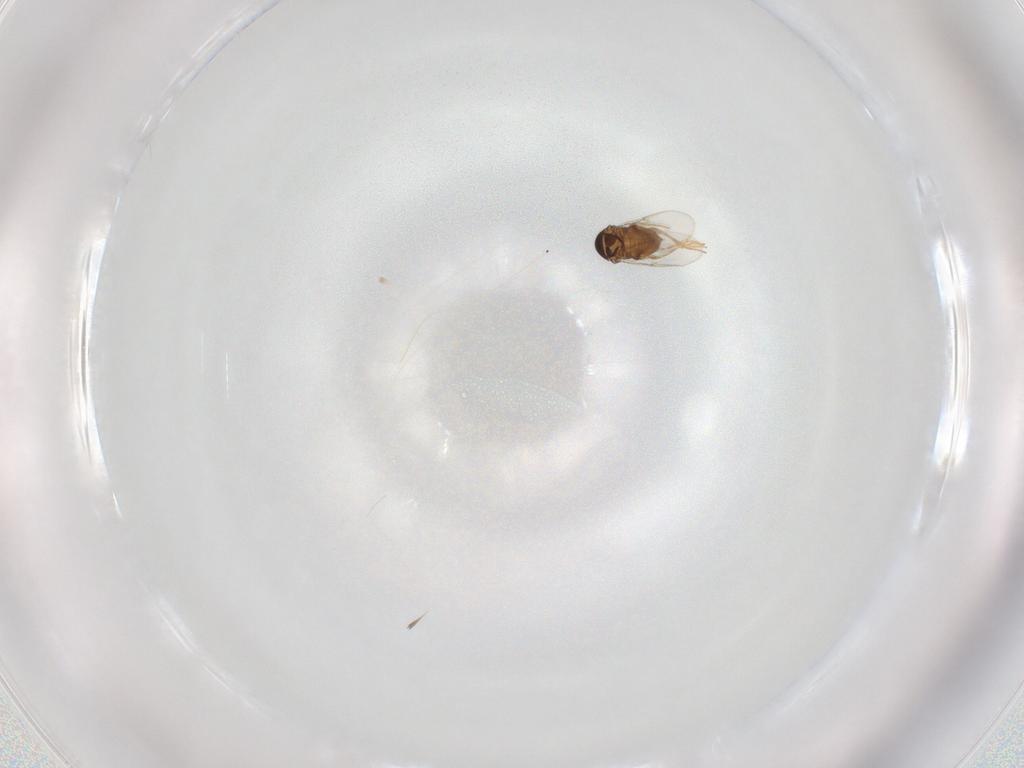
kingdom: Animalia
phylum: Arthropoda
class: Insecta
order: Hymenoptera
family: Encyrtidae
